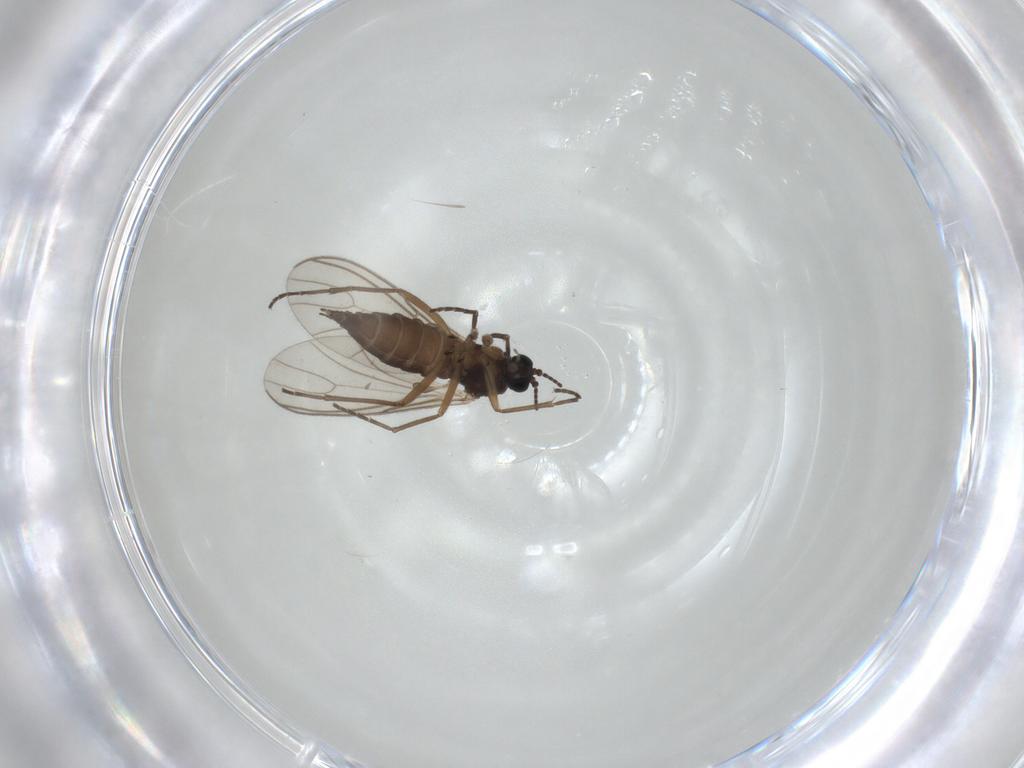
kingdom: Animalia
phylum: Arthropoda
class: Insecta
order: Diptera
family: Sciaridae
